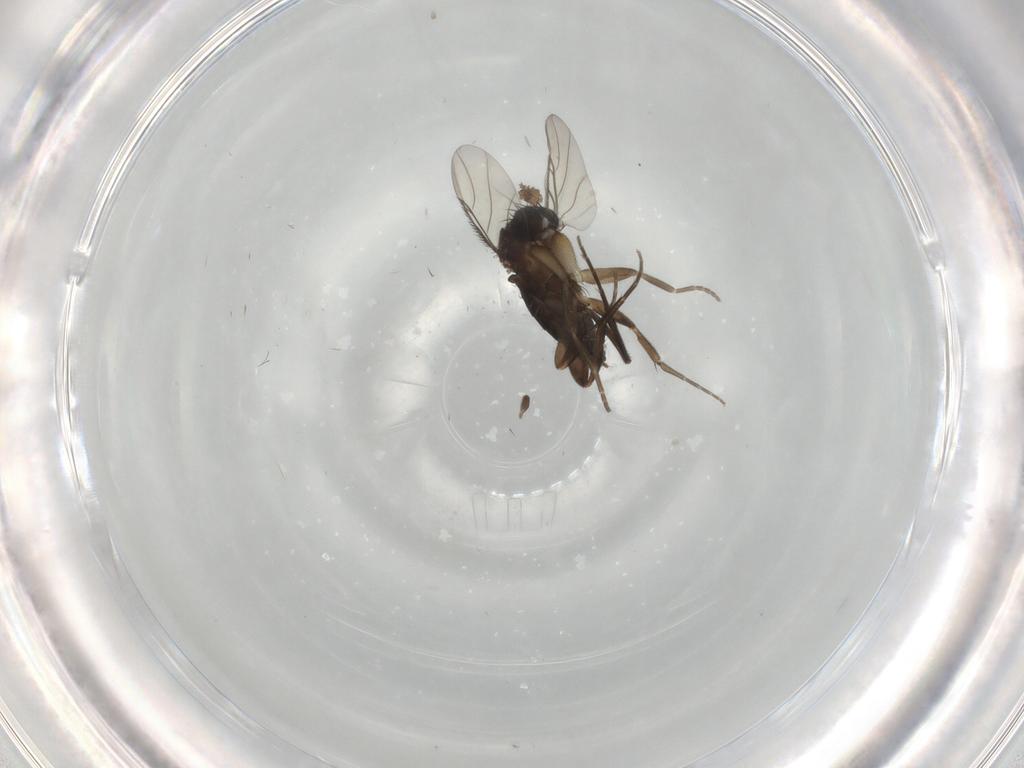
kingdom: Animalia
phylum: Arthropoda
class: Insecta
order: Diptera
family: Phoridae
